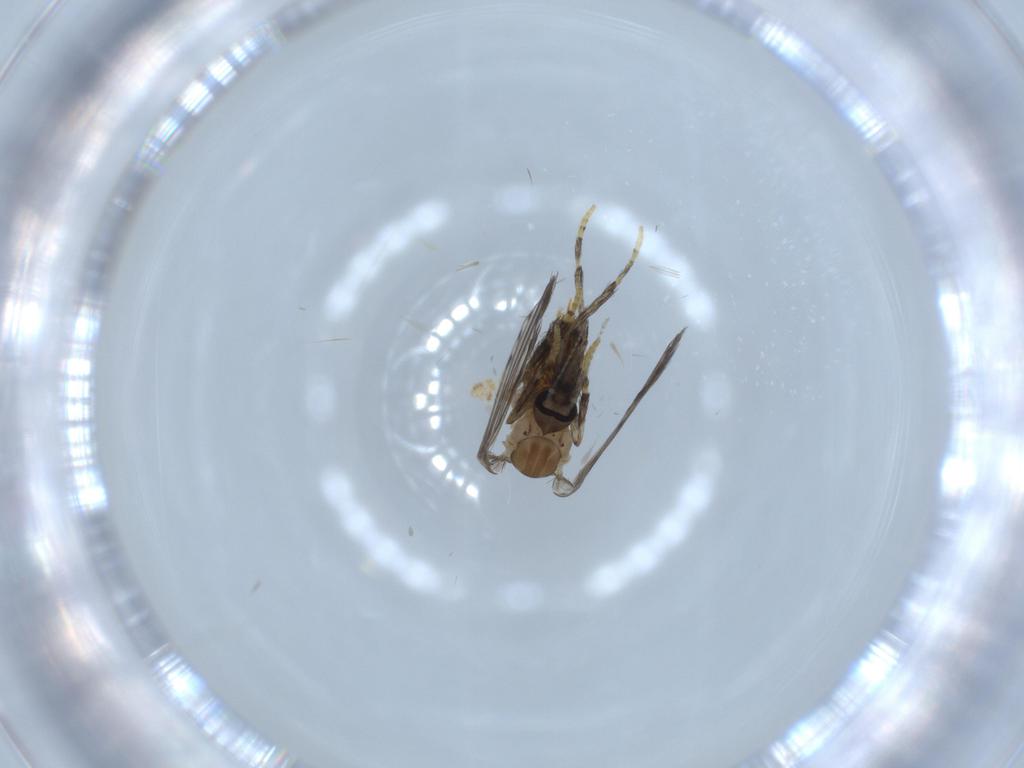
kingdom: Animalia
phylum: Arthropoda
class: Insecta
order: Diptera
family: Psychodidae
